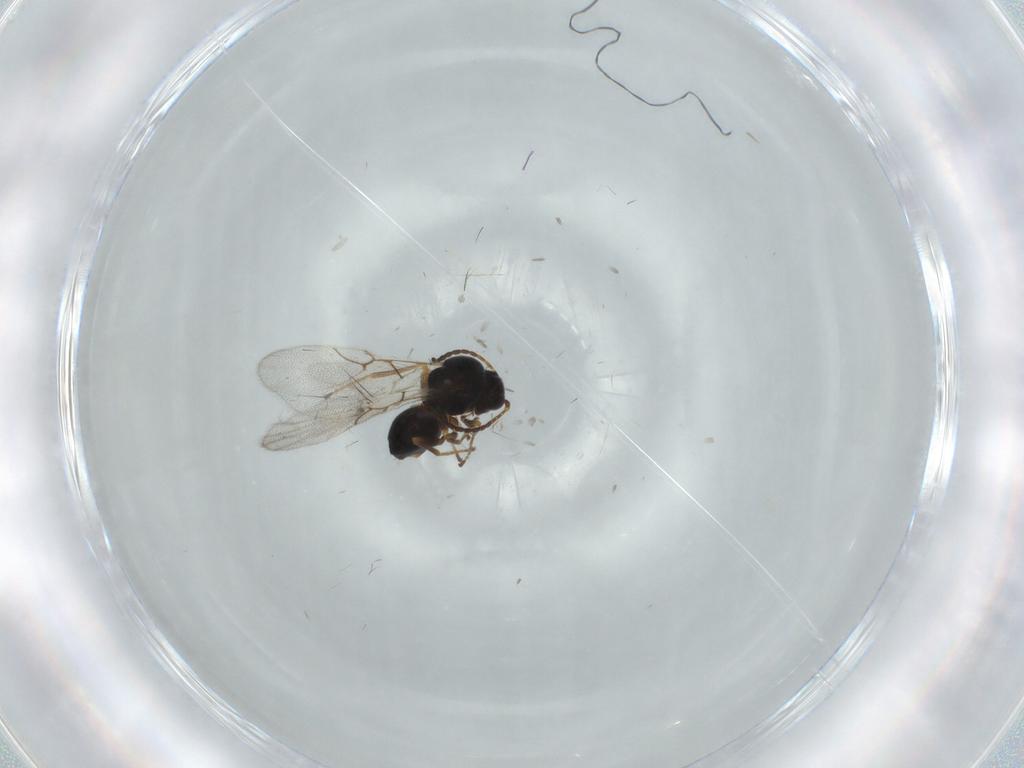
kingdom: Animalia
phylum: Arthropoda
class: Insecta
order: Hymenoptera
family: Figitidae
